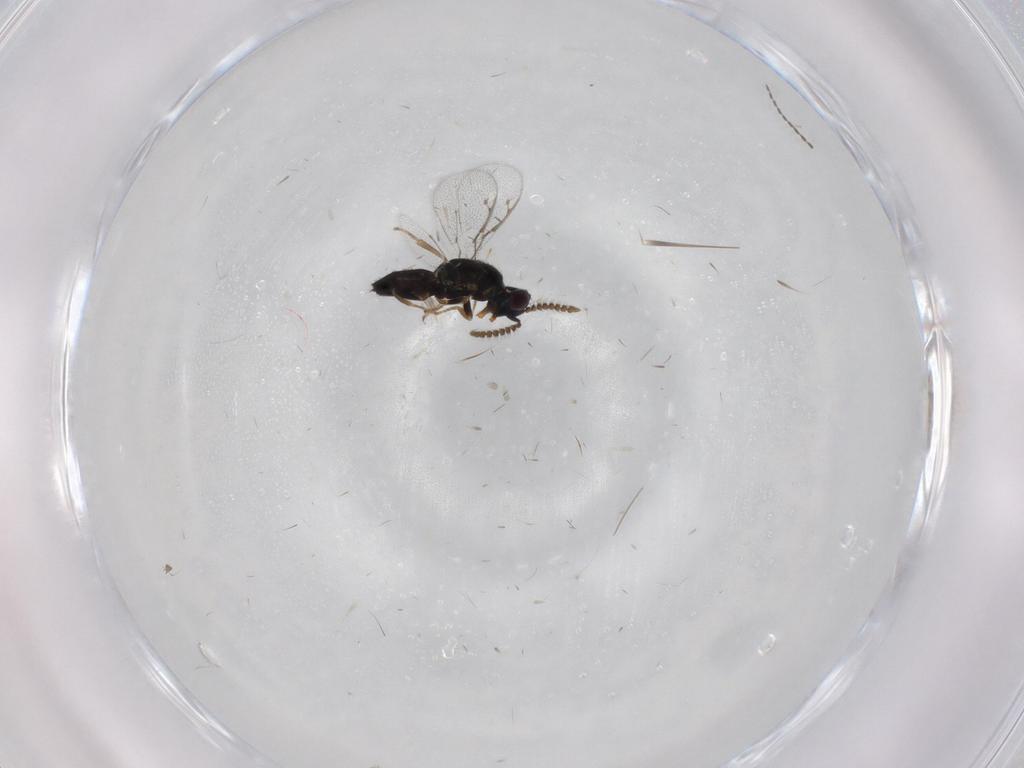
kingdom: Animalia
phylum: Arthropoda
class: Insecta
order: Hymenoptera
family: Pirenidae
